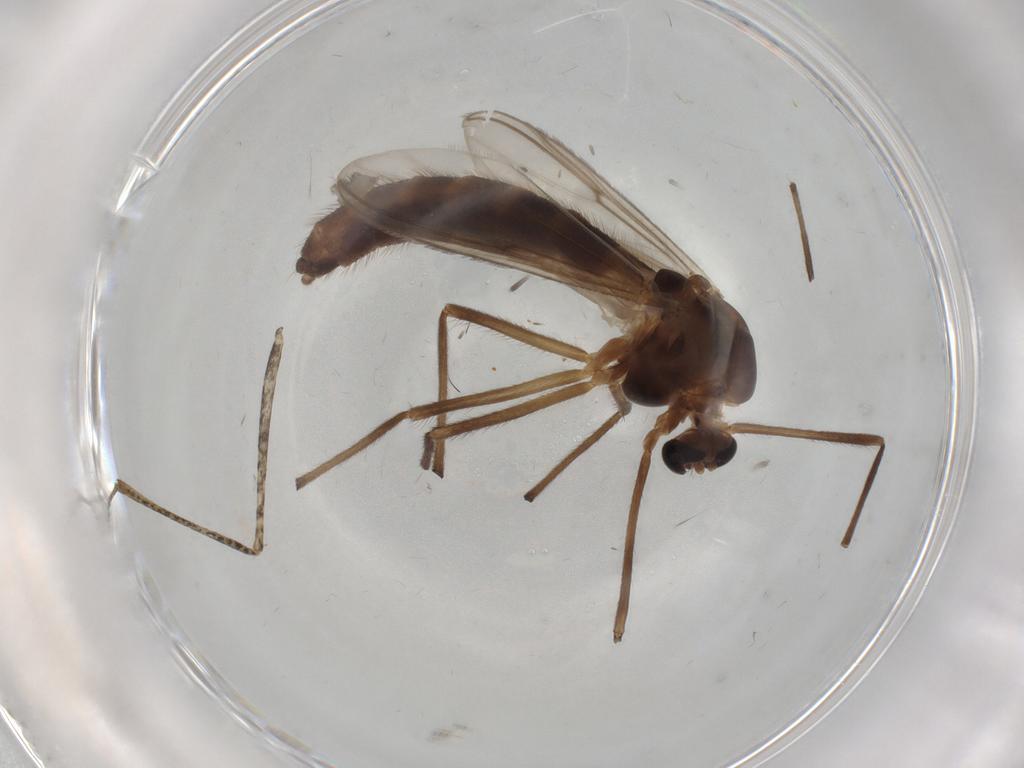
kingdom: Animalia
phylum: Arthropoda
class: Insecta
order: Diptera
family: Chironomidae
